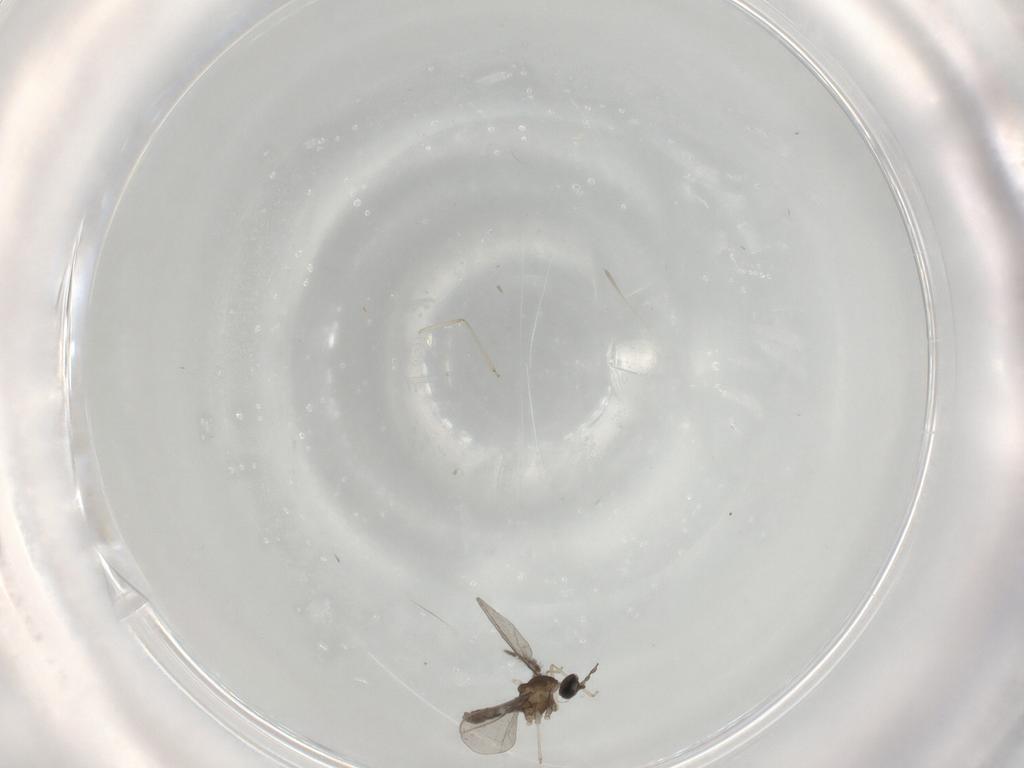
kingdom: Animalia
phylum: Arthropoda
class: Insecta
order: Diptera
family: Cecidomyiidae
